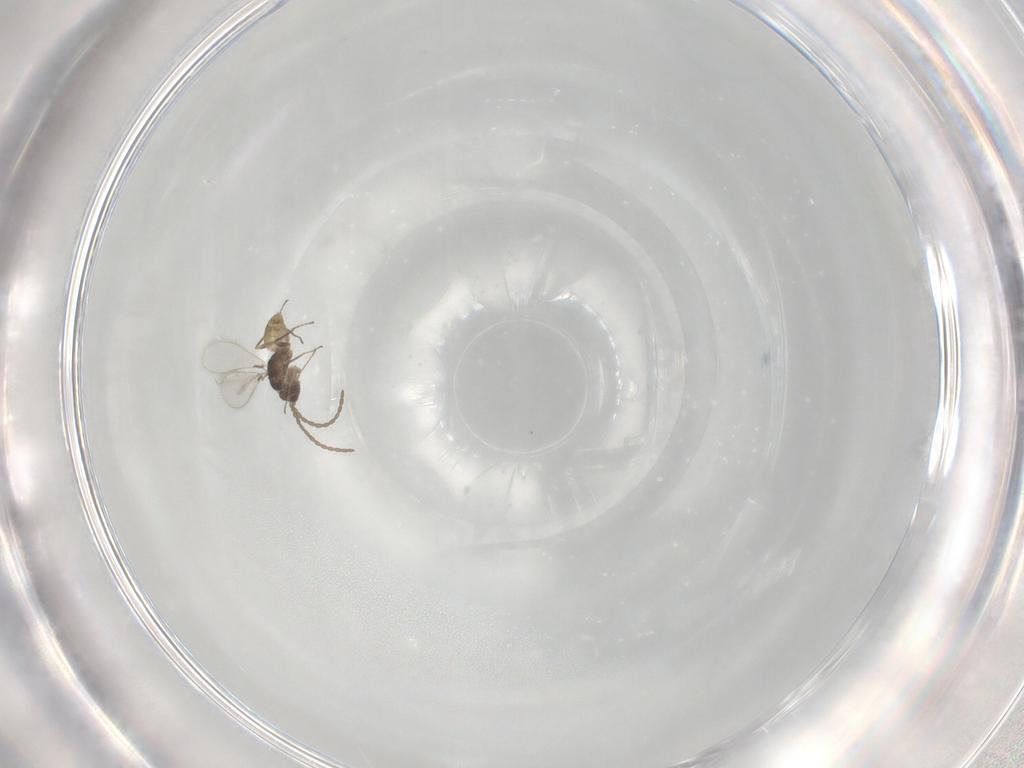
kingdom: Animalia
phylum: Arthropoda
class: Insecta
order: Hymenoptera
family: Mymaridae
